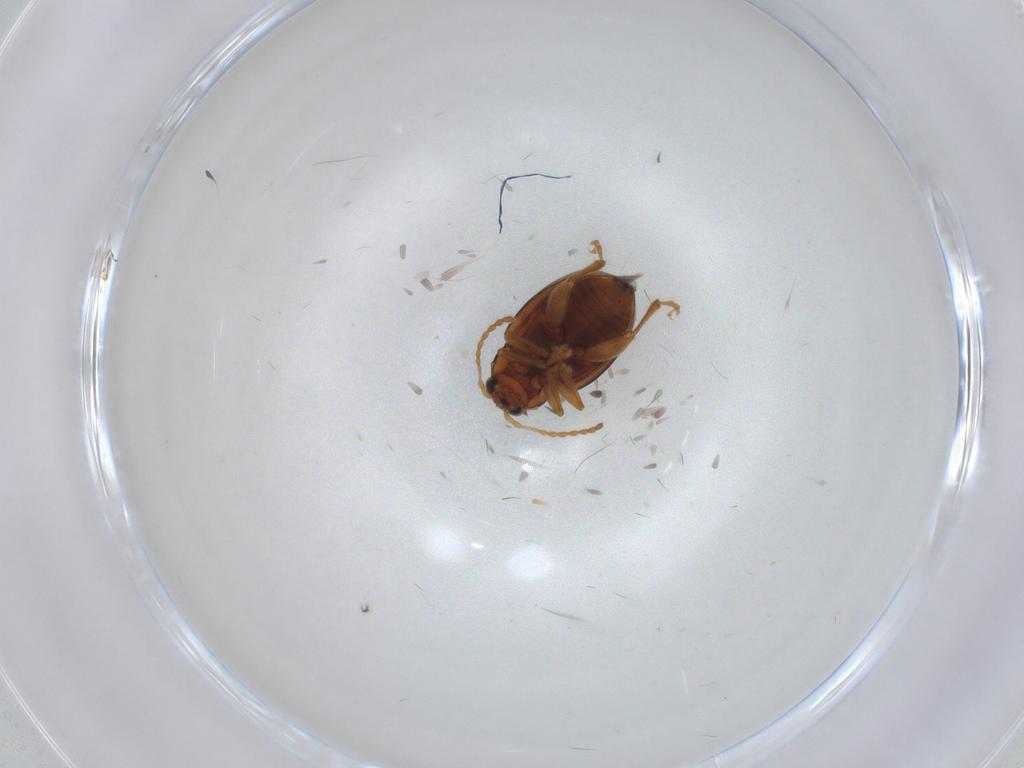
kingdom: Animalia
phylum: Arthropoda
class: Insecta
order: Coleoptera
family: Chrysomelidae
